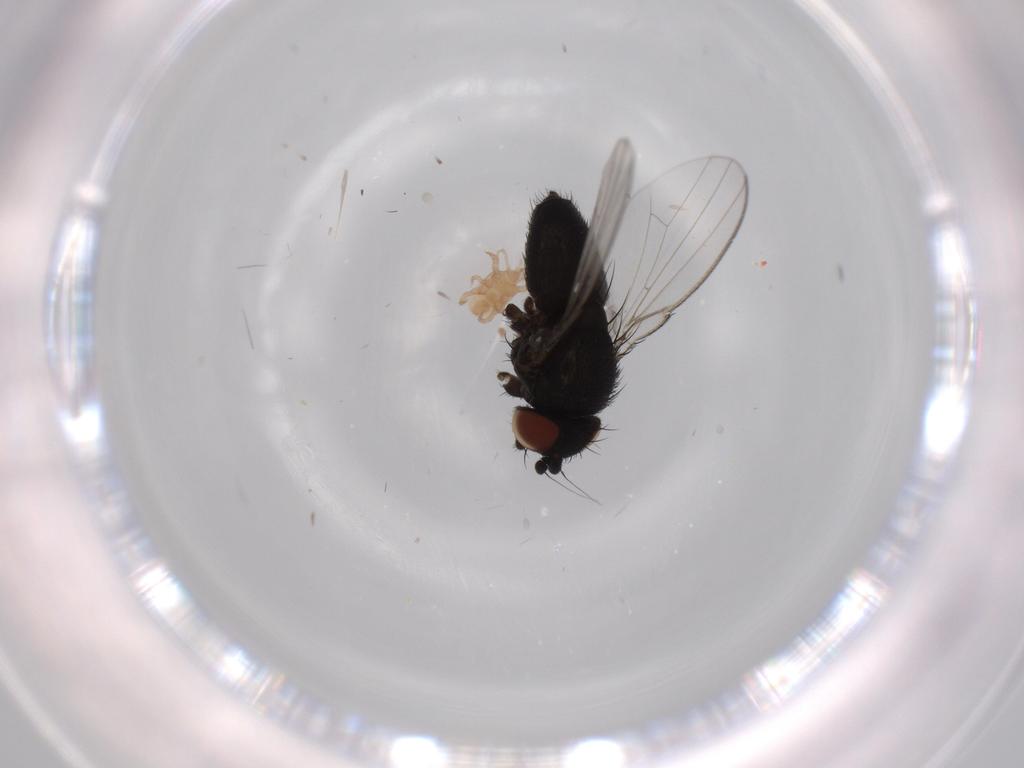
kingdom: Animalia
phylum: Arthropoda
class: Insecta
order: Diptera
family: Milichiidae
